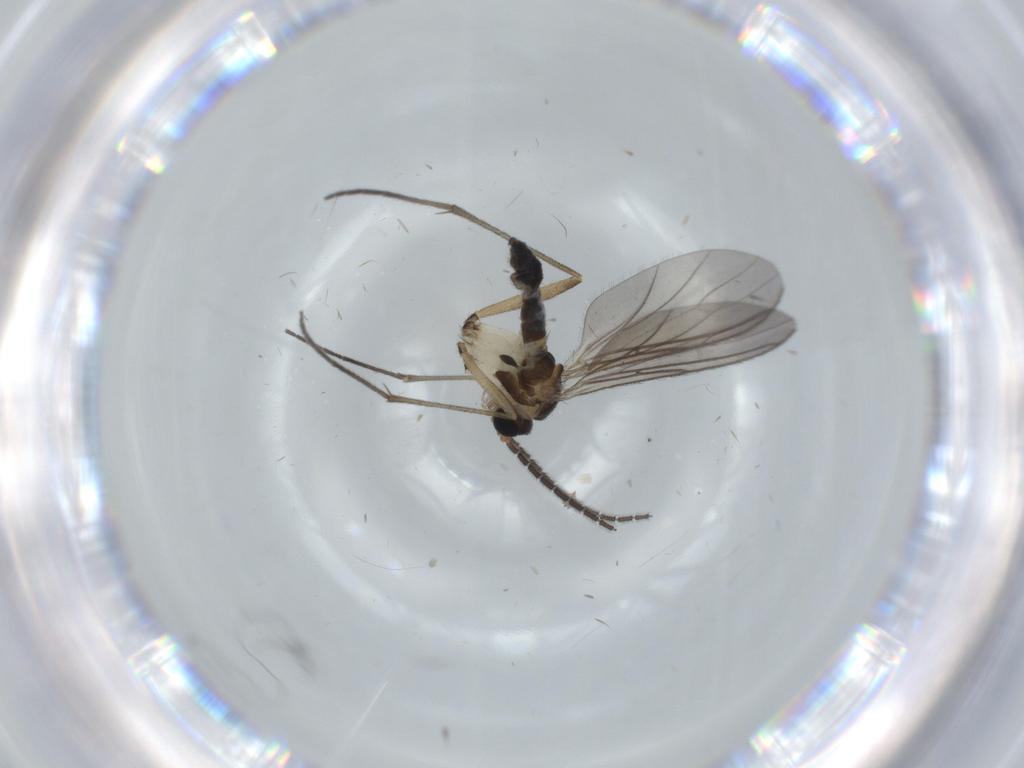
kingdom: Animalia
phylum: Arthropoda
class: Insecta
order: Diptera
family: Sciaridae
